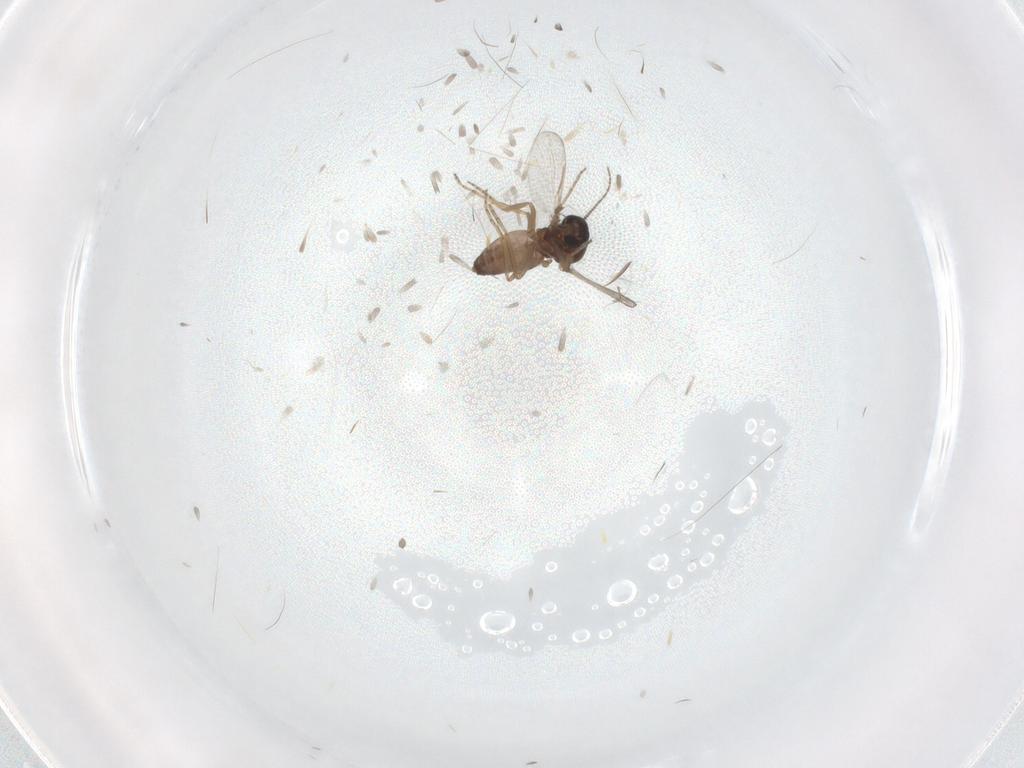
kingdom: Animalia
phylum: Arthropoda
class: Insecta
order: Diptera
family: Ceratopogonidae
